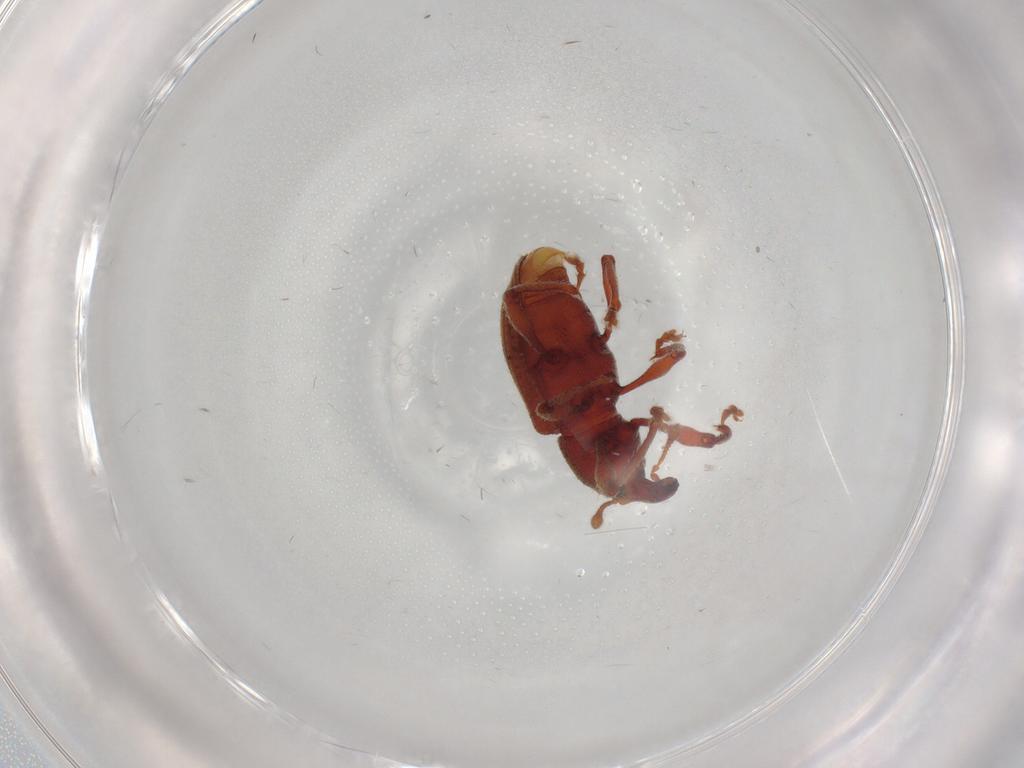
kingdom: Animalia
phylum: Arthropoda
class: Insecta
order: Coleoptera
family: Curculionidae
